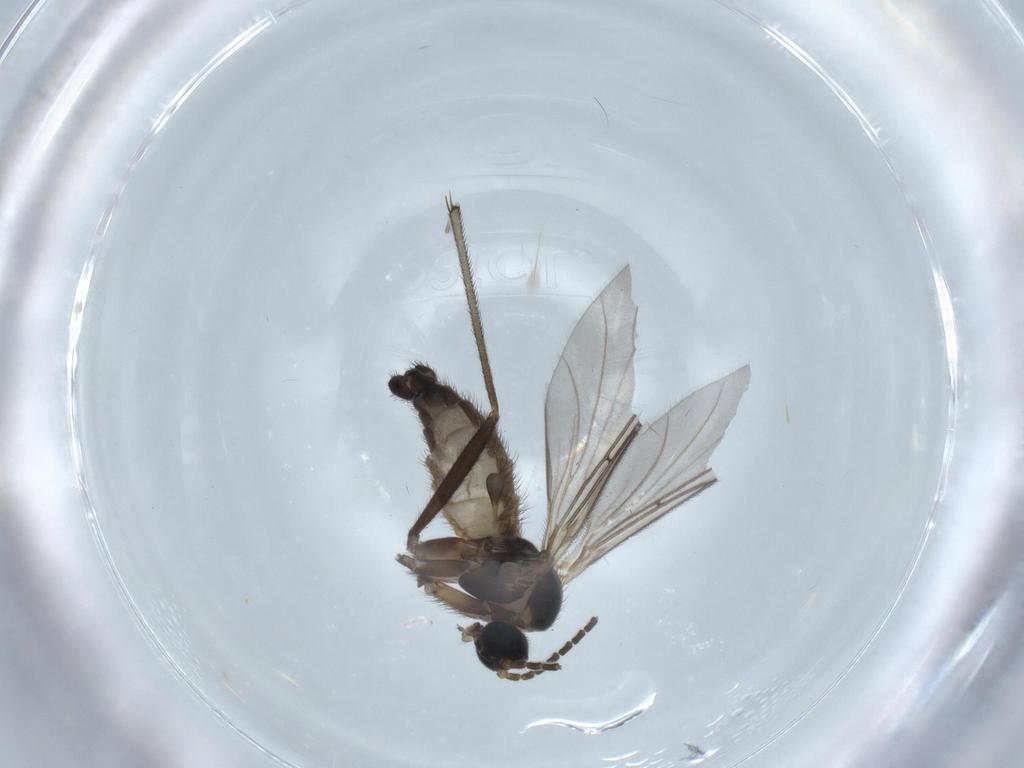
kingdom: Animalia
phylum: Arthropoda
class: Insecta
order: Diptera
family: Sciaridae
